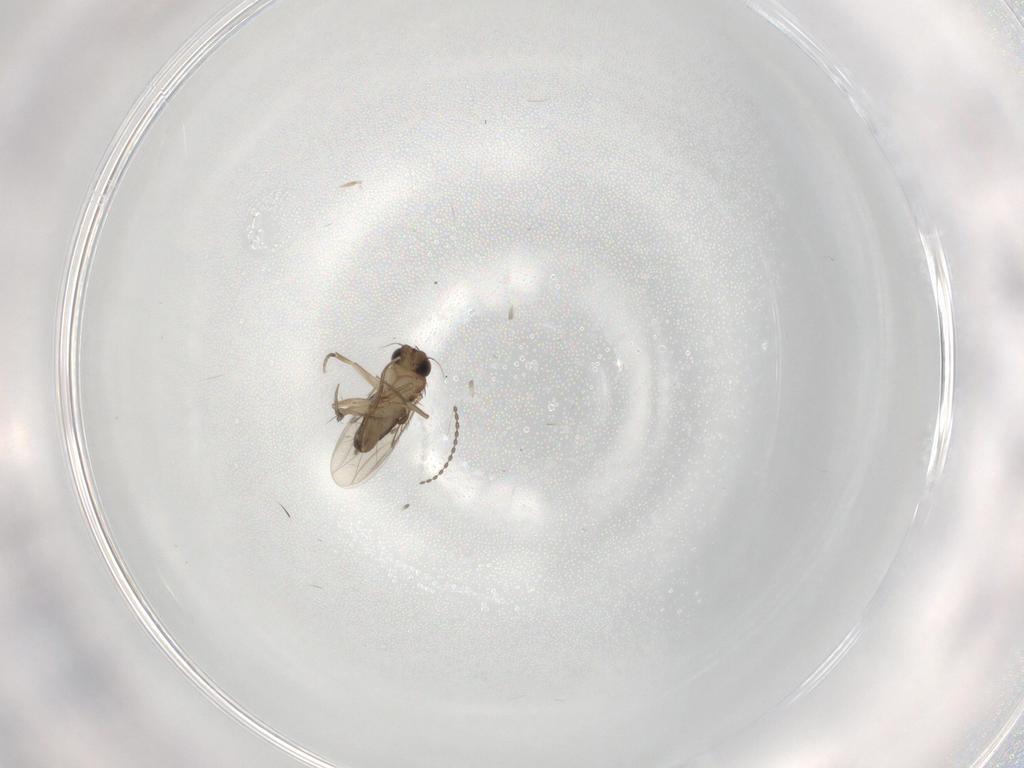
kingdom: Animalia
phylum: Arthropoda
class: Insecta
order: Diptera
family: Phoridae
